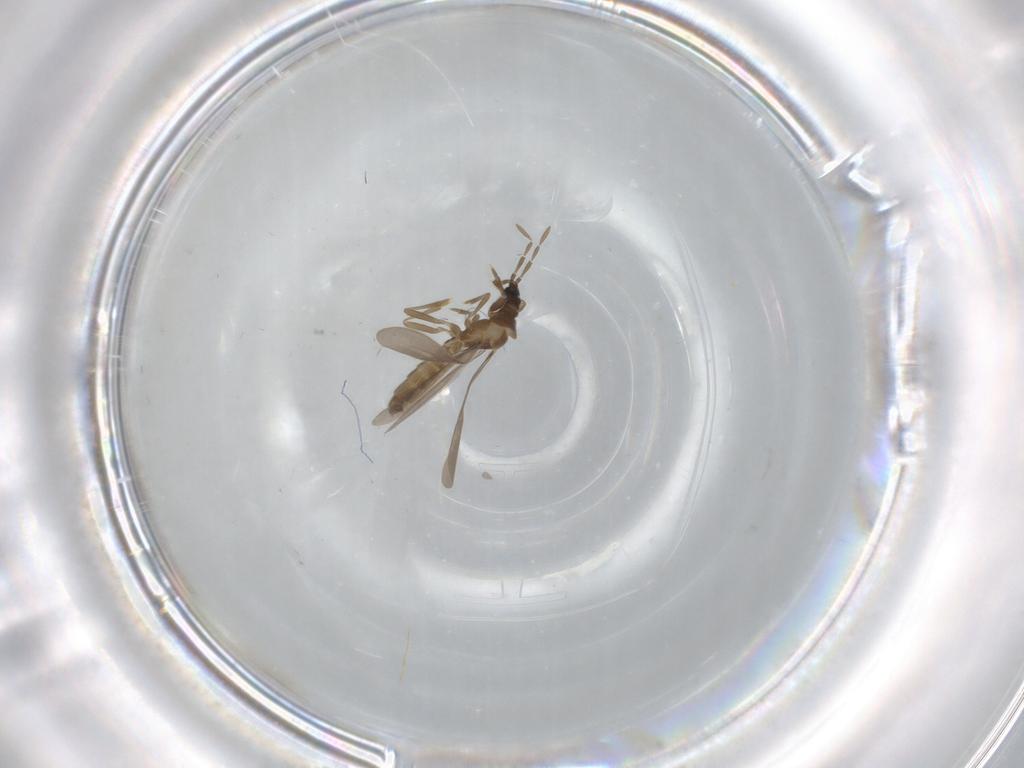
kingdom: Animalia
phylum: Arthropoda
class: Insecta
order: Hemiptera
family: Enicocephalidae
